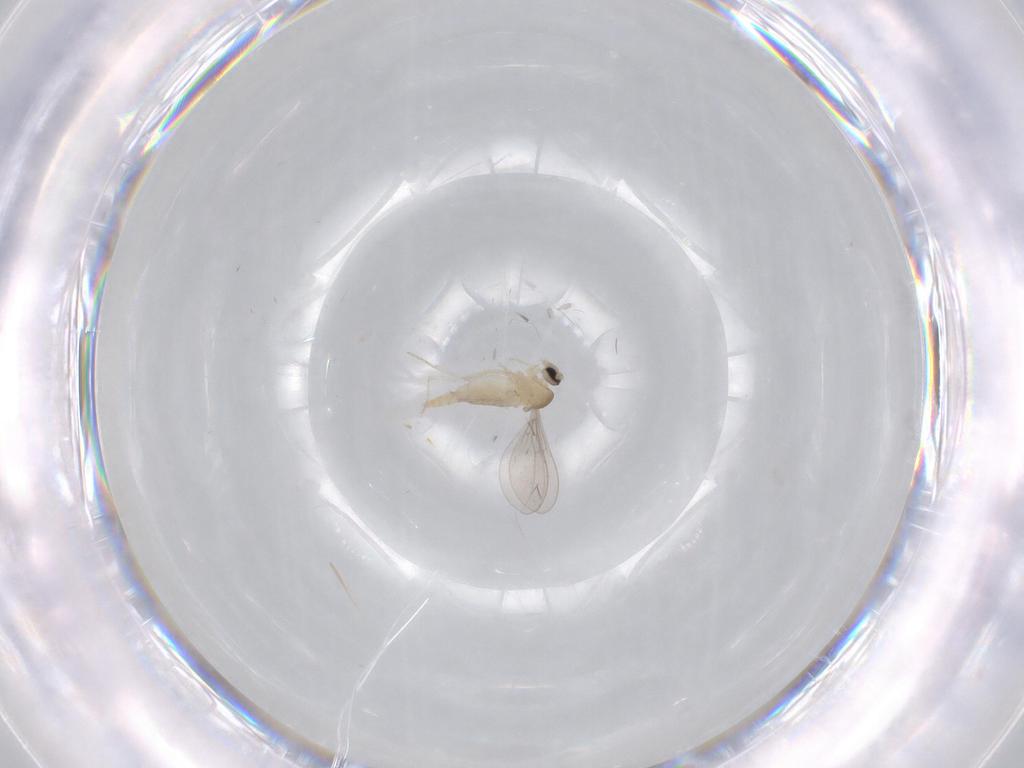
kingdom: Animalia
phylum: Arthropoda
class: Insecta
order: Diptera
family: Cecidomyiidae
